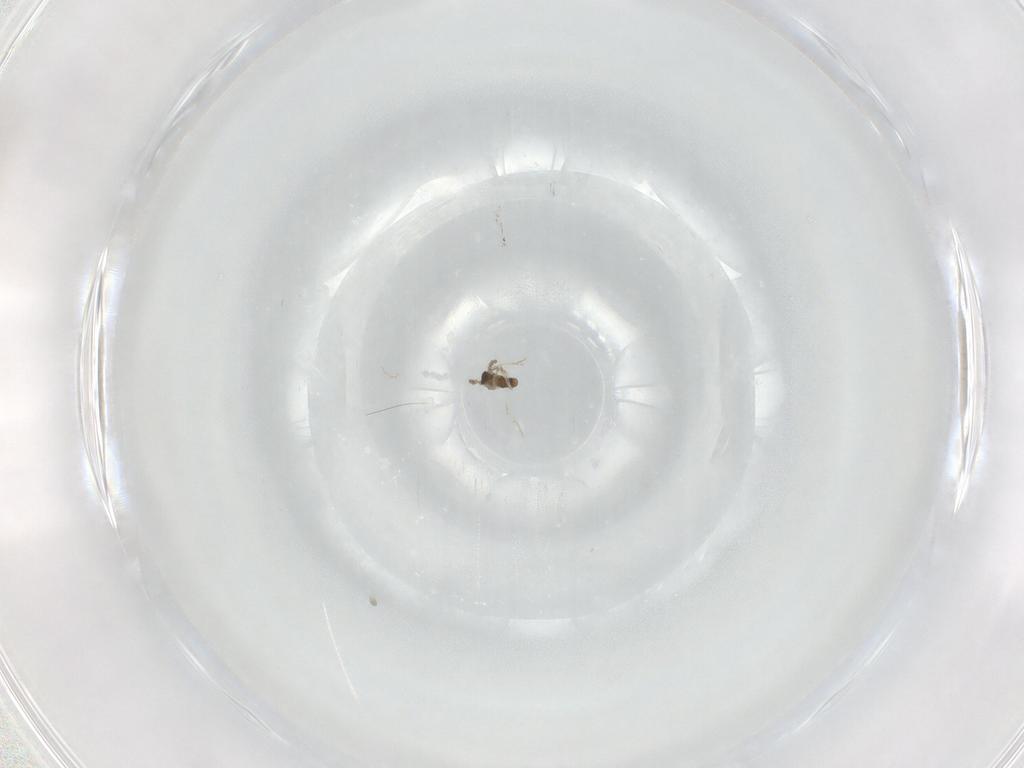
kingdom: Animalia
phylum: Arthropoda
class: Insecta
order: Diptera
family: Cecidomyiidae
